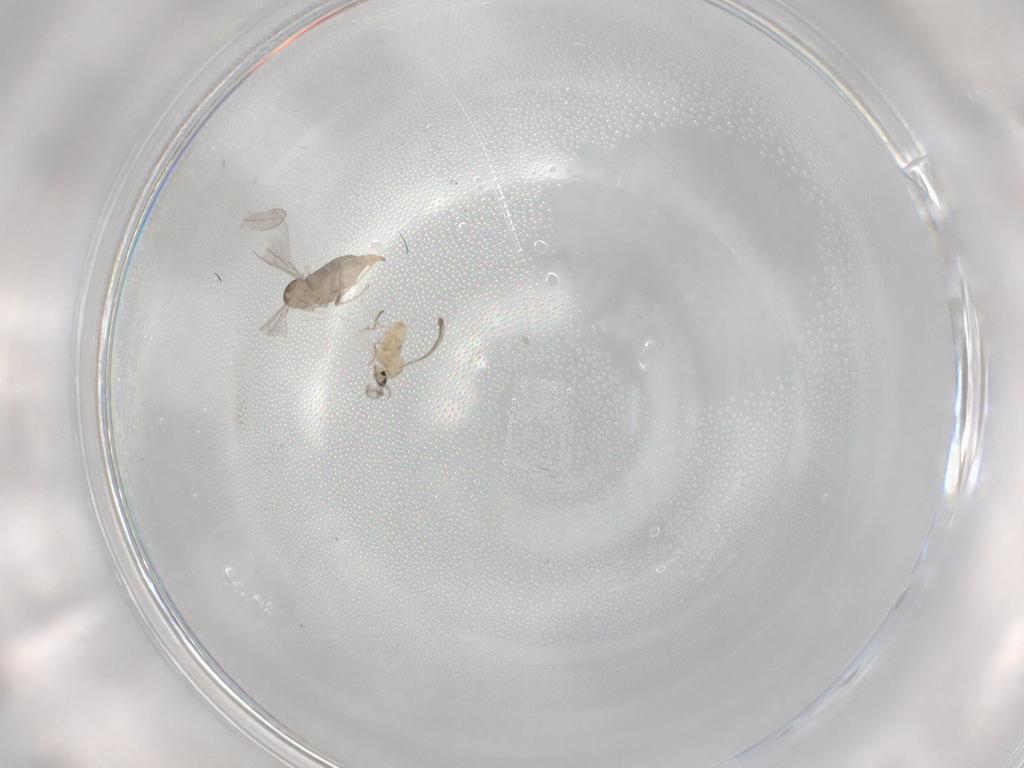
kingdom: Animalia
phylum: Arthropoda
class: Insecta
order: Diptera
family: Cecidomyiidae
